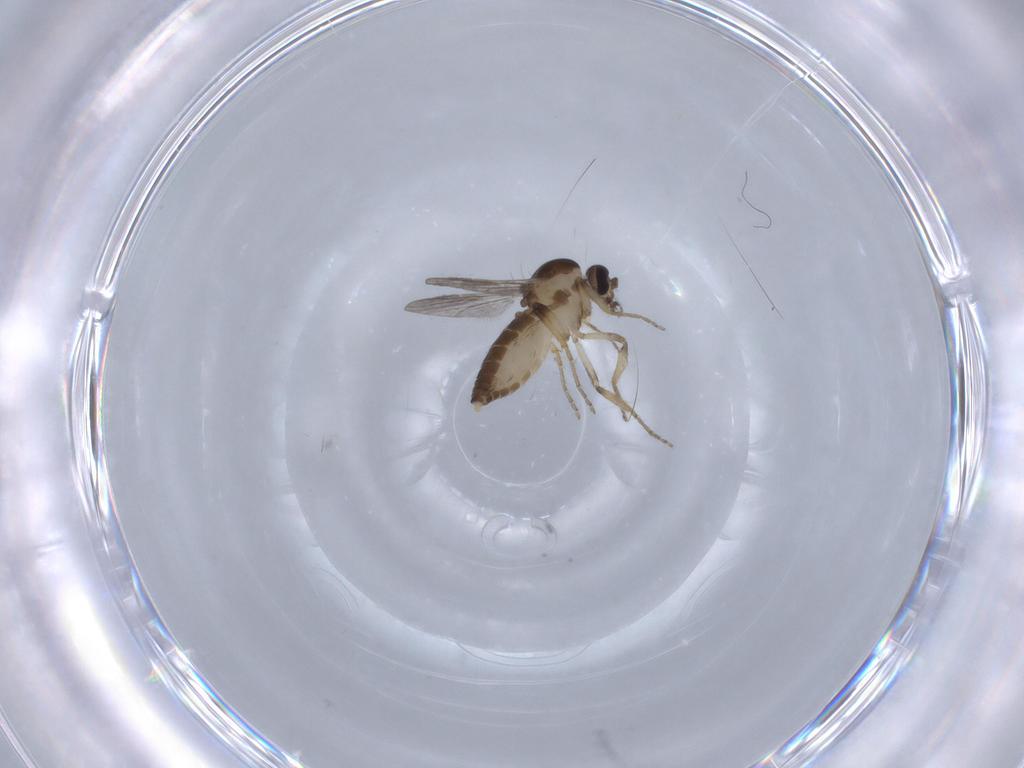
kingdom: Animalia
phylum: Arthropoda
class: Insecta
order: Diptera
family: Ceratopogonidae
